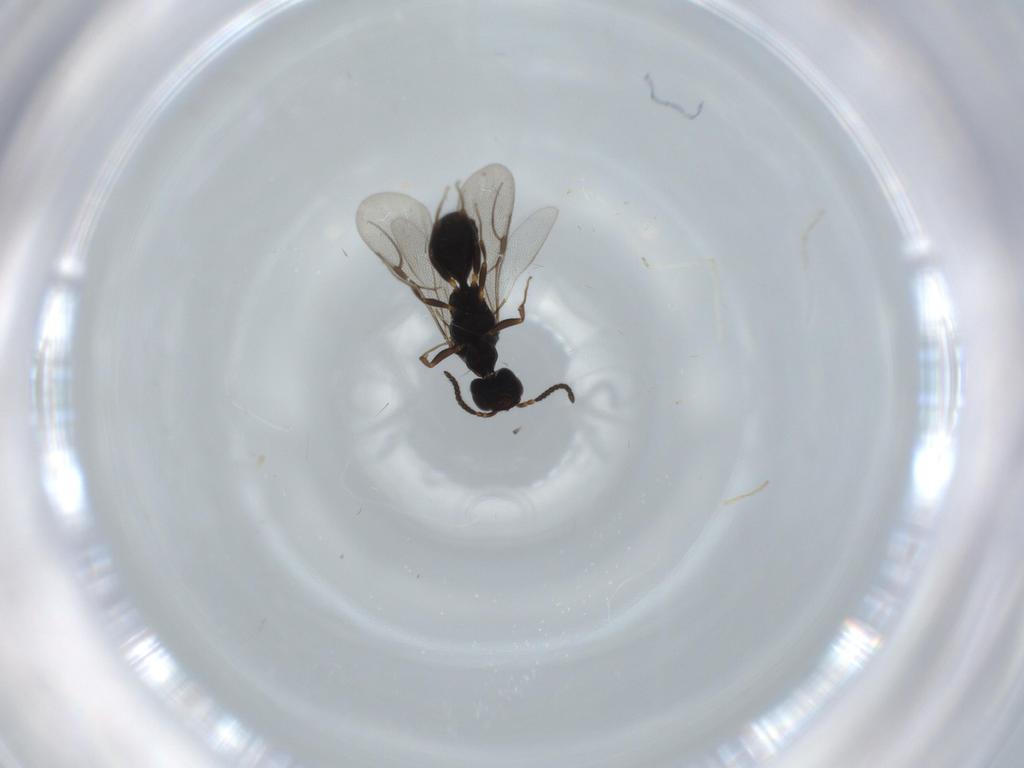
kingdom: Animalia
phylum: Arthropoda
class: Insecta
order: Hymenoptera
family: Bethylidae
